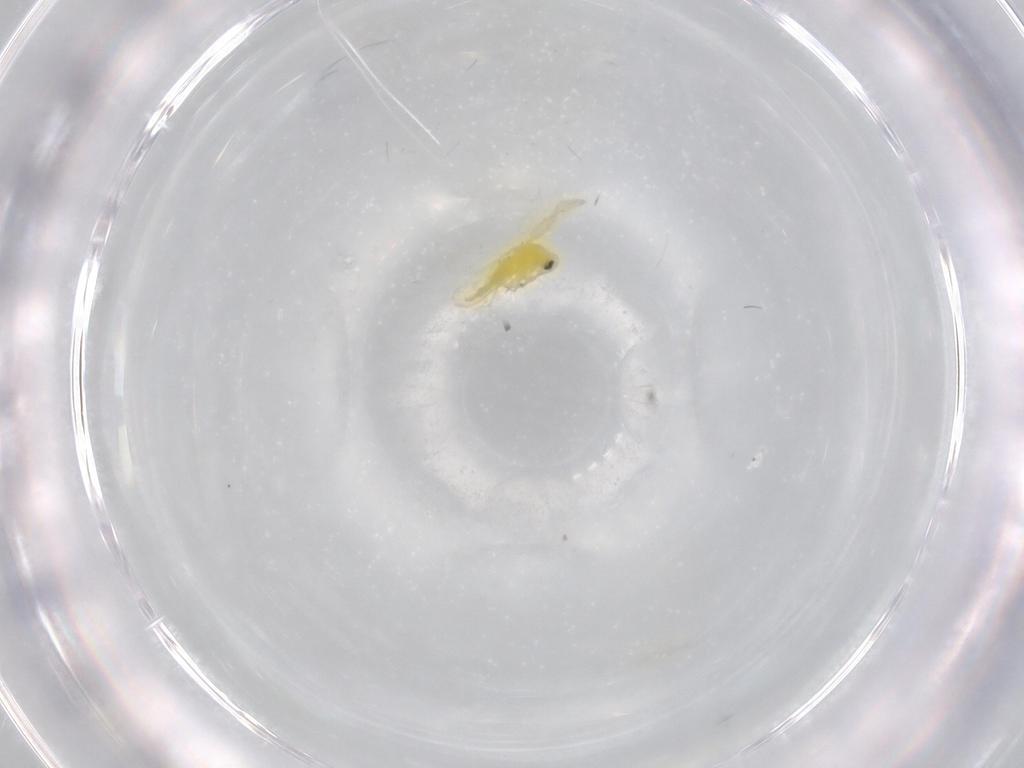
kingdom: Animalia
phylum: Arthropoda
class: Insecta
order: Hemiptera
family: Aleyrodidae
